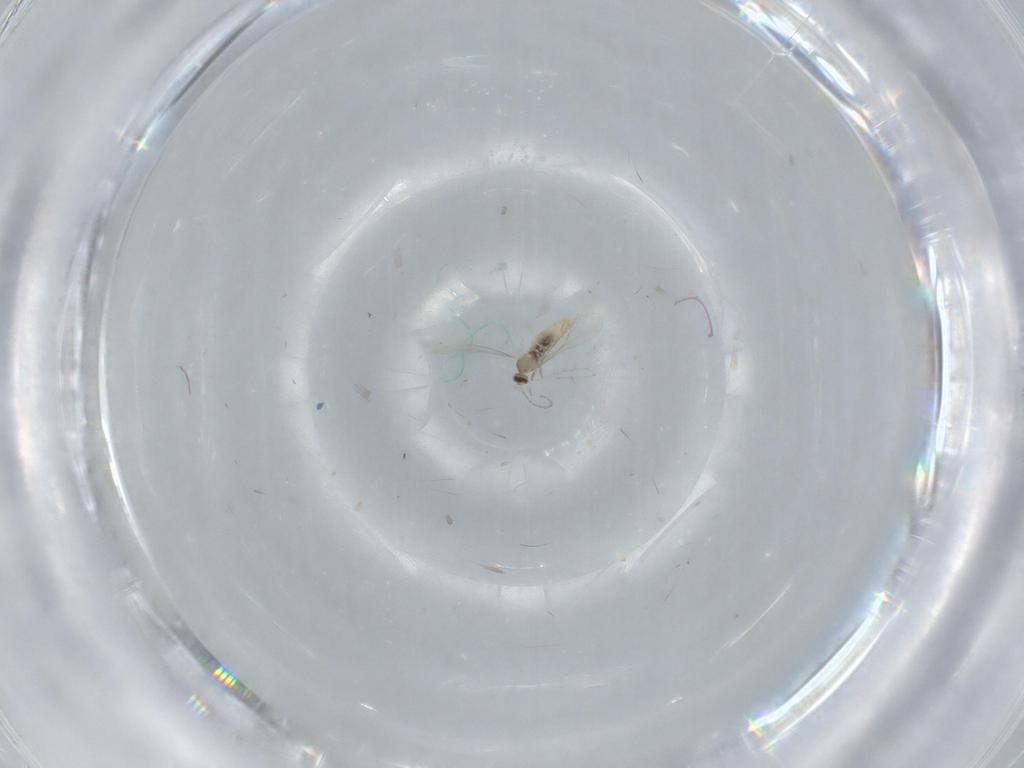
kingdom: Animalia
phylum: Arthropoda
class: Insecta
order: Diptera
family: Cecidomyiidae
